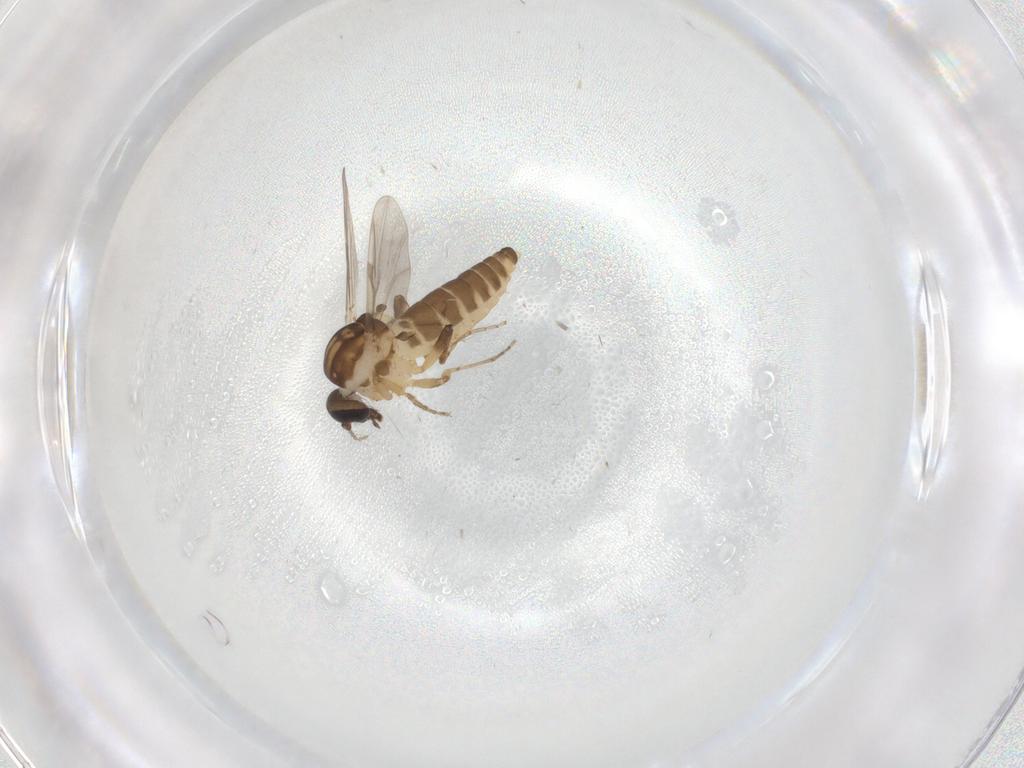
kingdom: Animalia
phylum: Arthropoda
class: Insecta
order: Diptera
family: Ceratopogonidae
